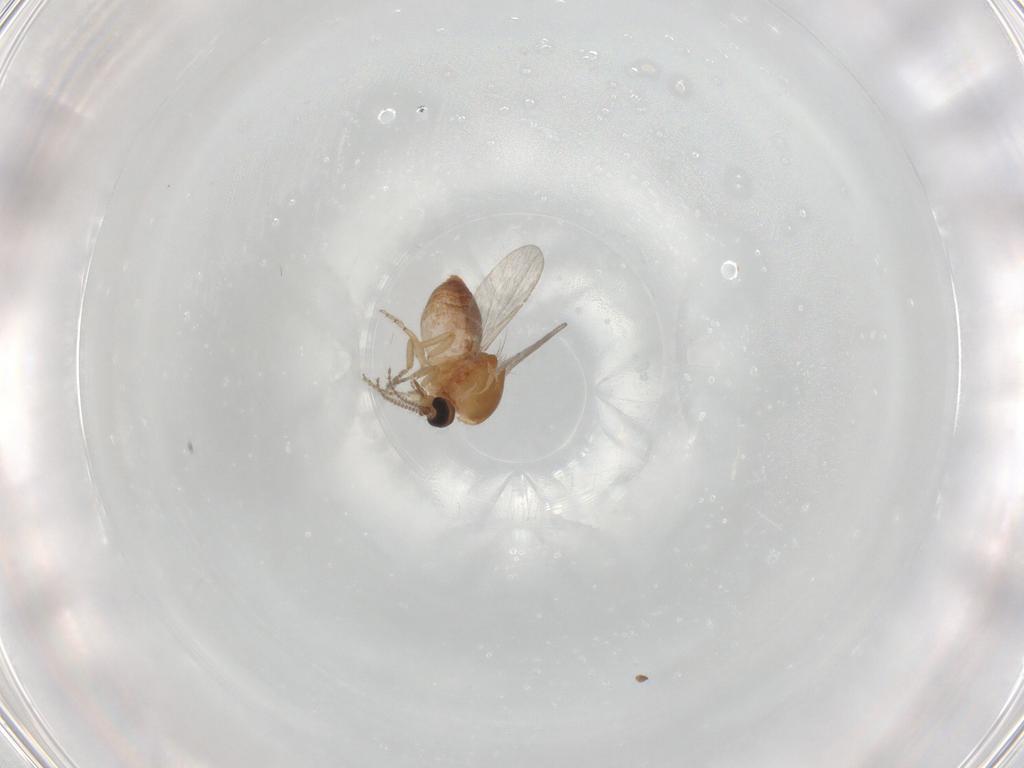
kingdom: Animalia
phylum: Arthropoda
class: Insecta
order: Diptera
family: Ceratopogonidae
